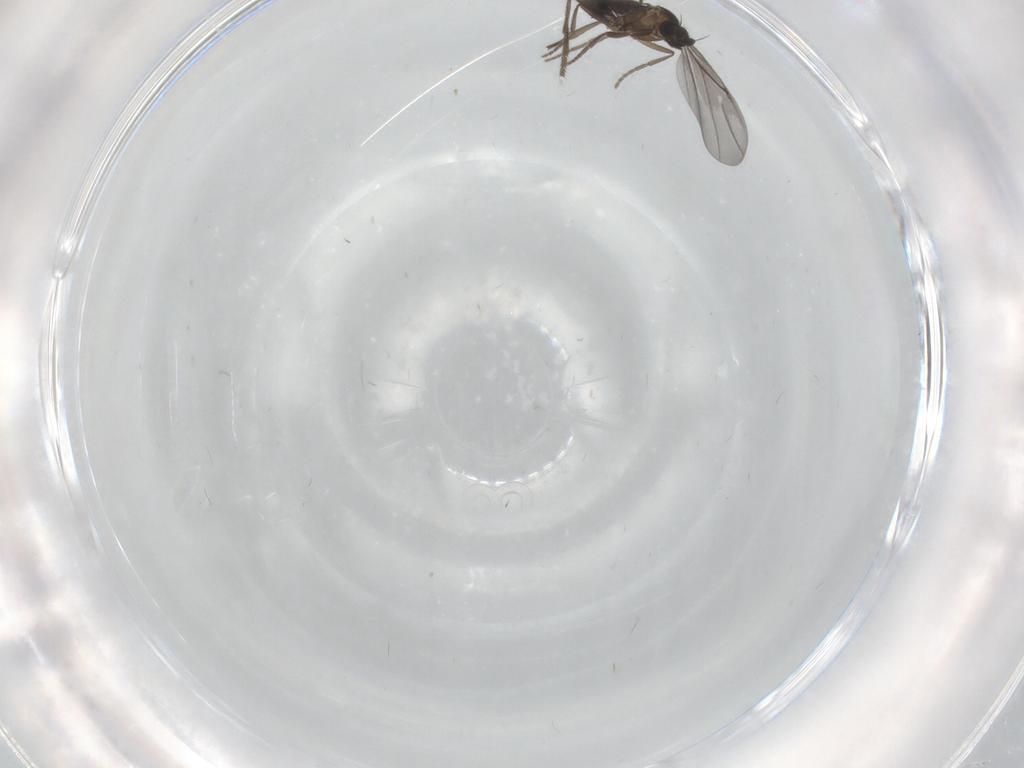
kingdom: Animalia
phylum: Arthropoda
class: Insecta
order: Diptera
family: Phoridae
